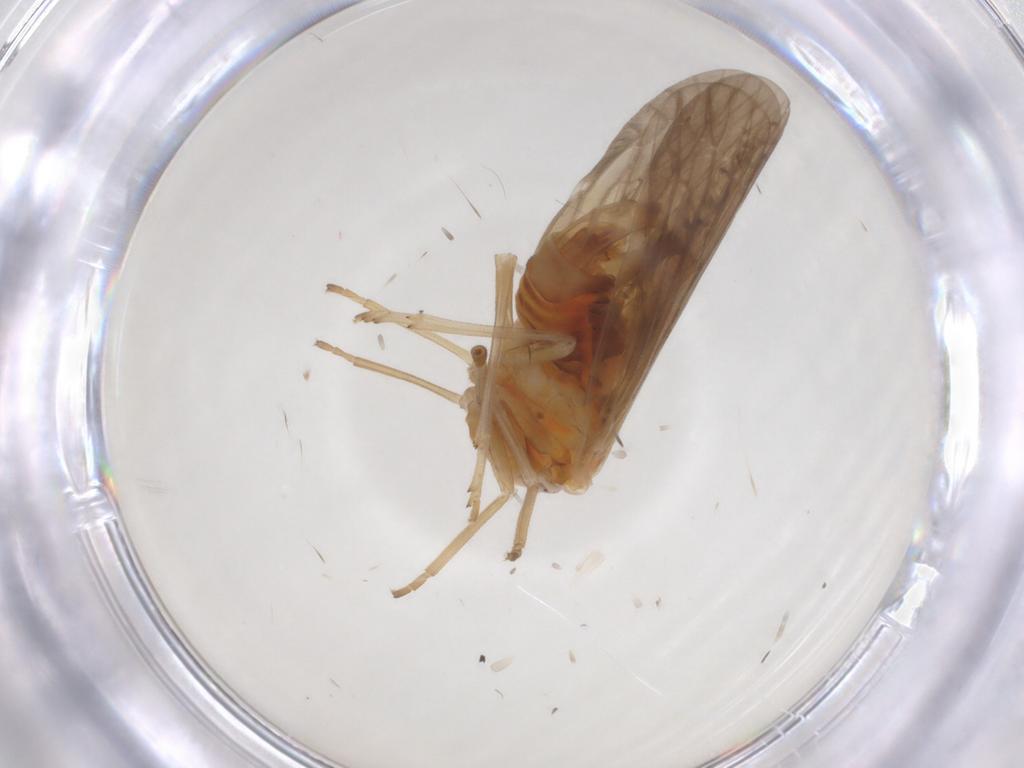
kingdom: Animalia
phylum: Arthropoda
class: Insecta
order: Hemiptera
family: Derbidae
